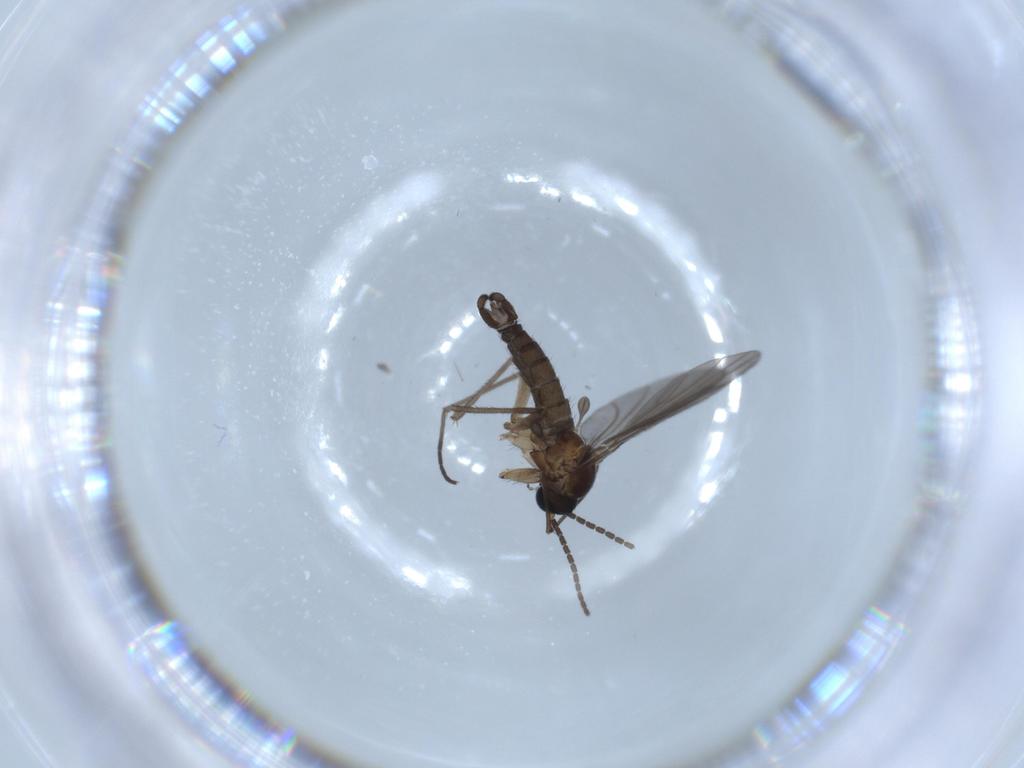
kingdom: Animalia
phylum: Arthropoda
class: Insecta
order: Diptera
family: Sciaridae
